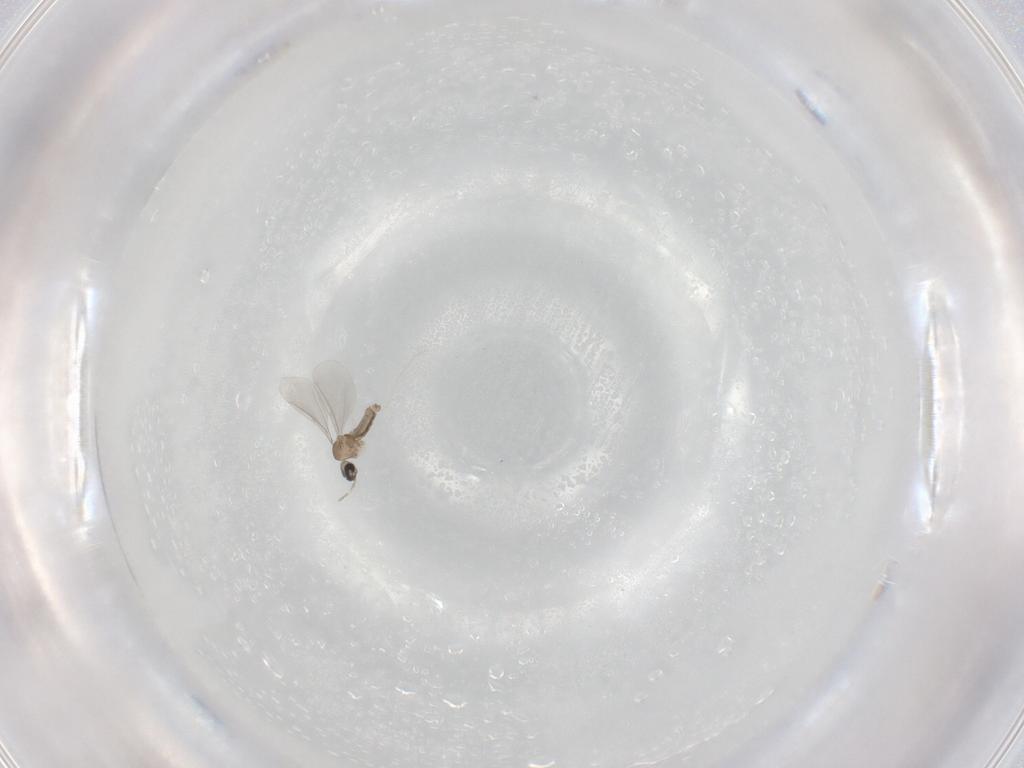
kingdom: Animalia
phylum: Arthropoda
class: Insecta
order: Diptera
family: Cecidomyiidae
